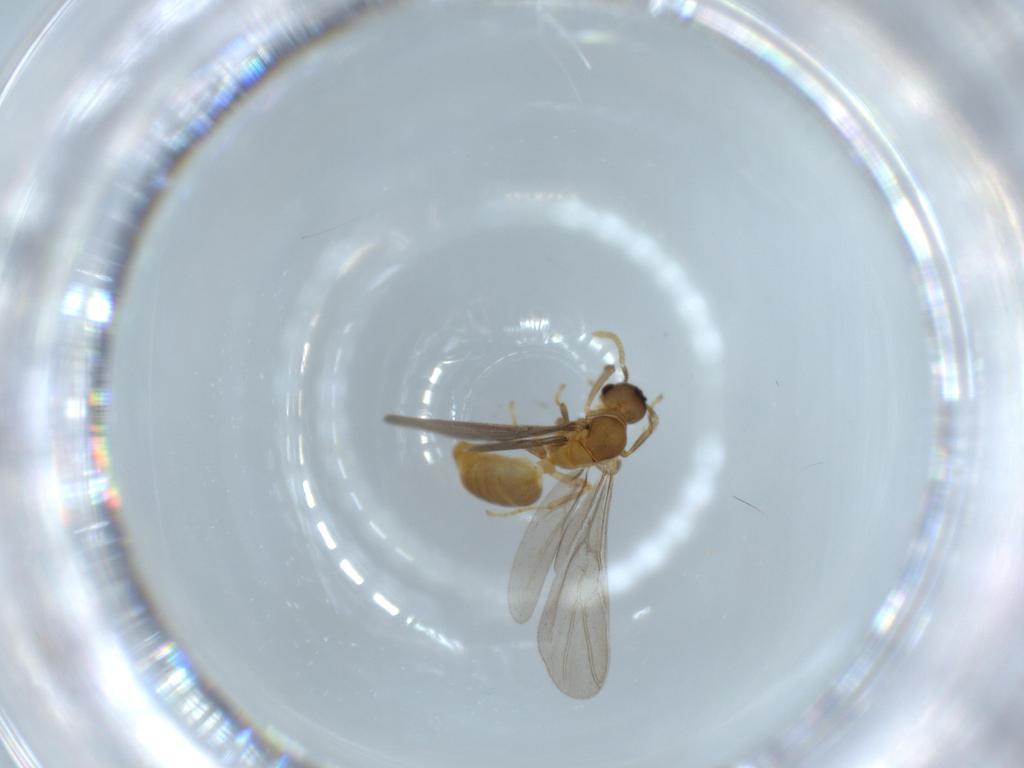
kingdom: Animalia
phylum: Arthropoda
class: Insecta
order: Hymenoptera
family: Formicidae
